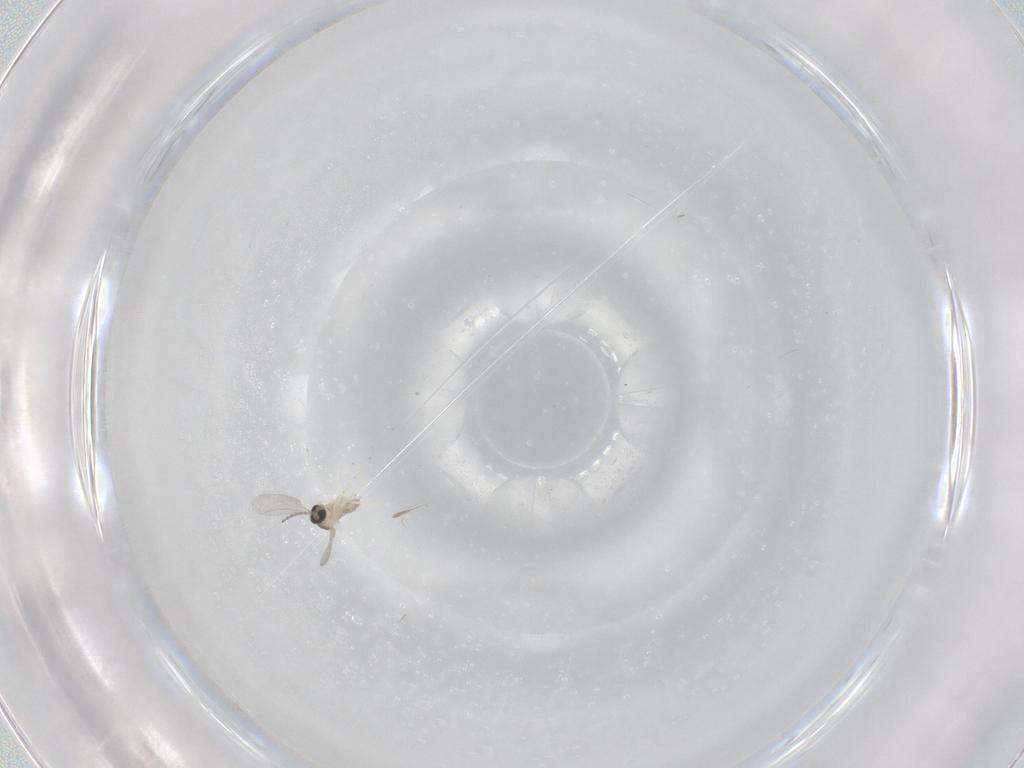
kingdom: Animalia
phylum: Arthropoda
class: Insecta
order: Diptera
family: Cecidomyiidae
